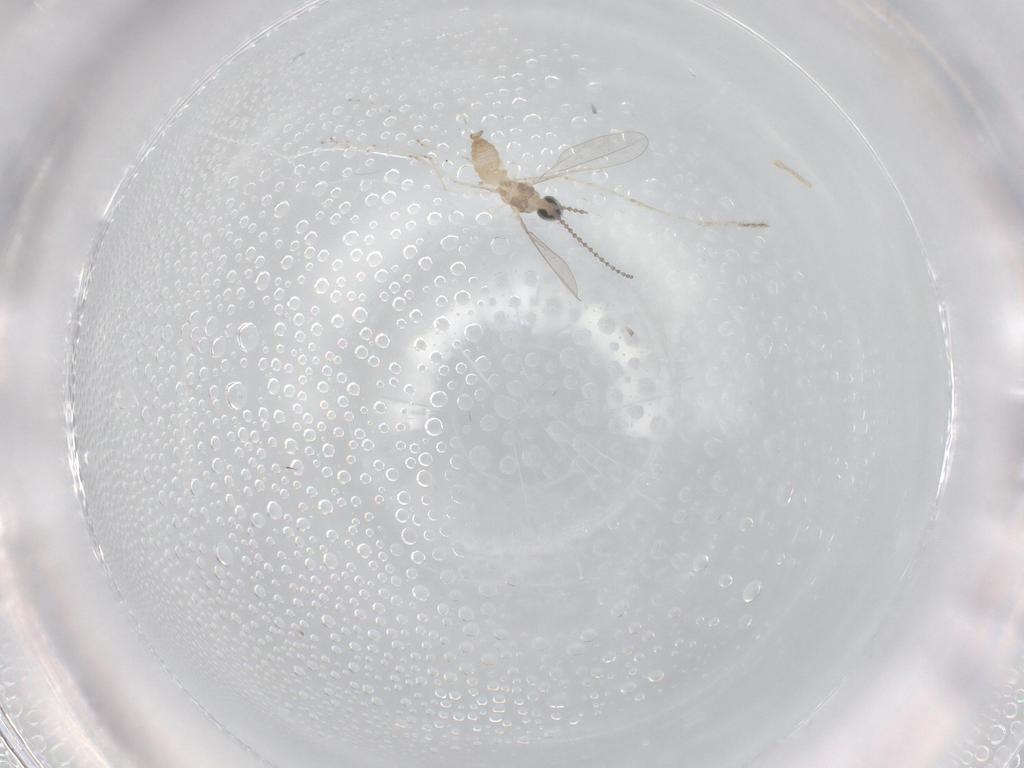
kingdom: Animalia
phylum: Arthropoda
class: Insecta
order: Diptera
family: Cecidomyiidae
